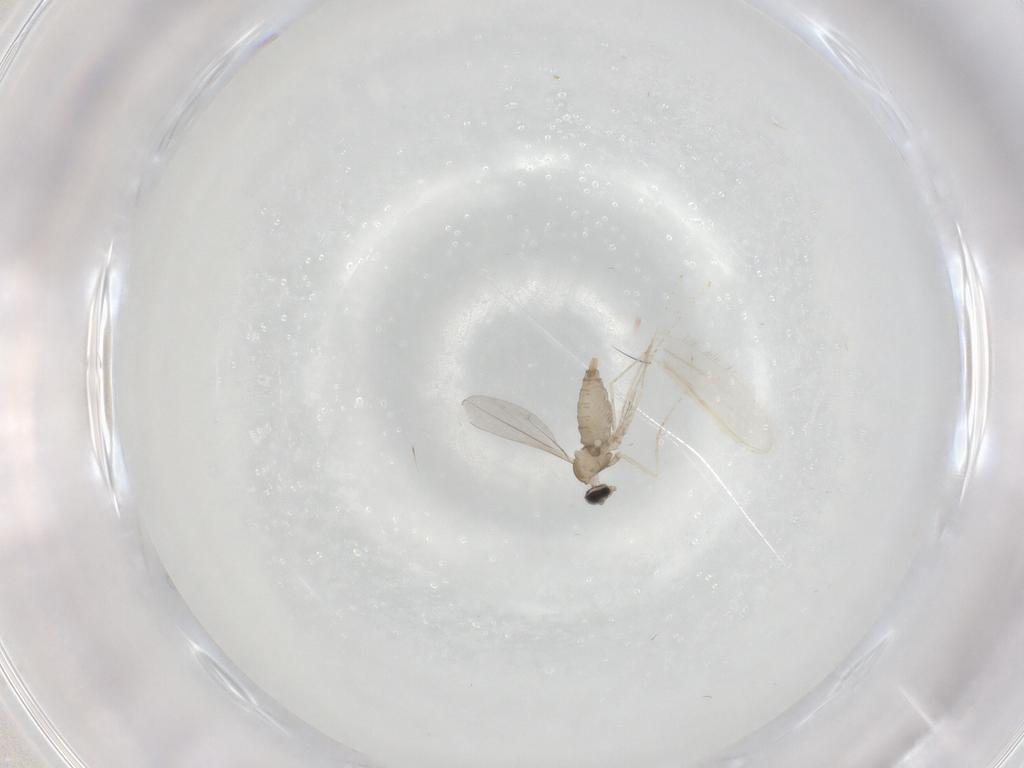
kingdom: Animalia
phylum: Arthropoda
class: Insecta
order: Diptera
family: Cecidomyiidae
